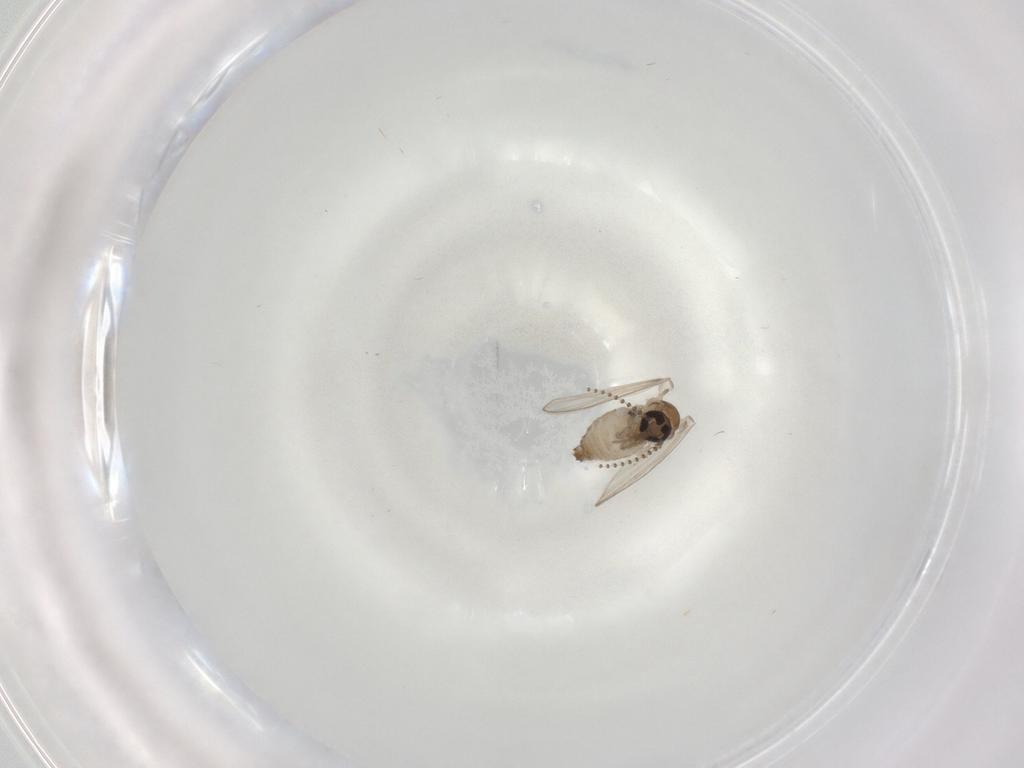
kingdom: Animalia
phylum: Arthropoda
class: Insecta
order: Diptera
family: Psychodidae
